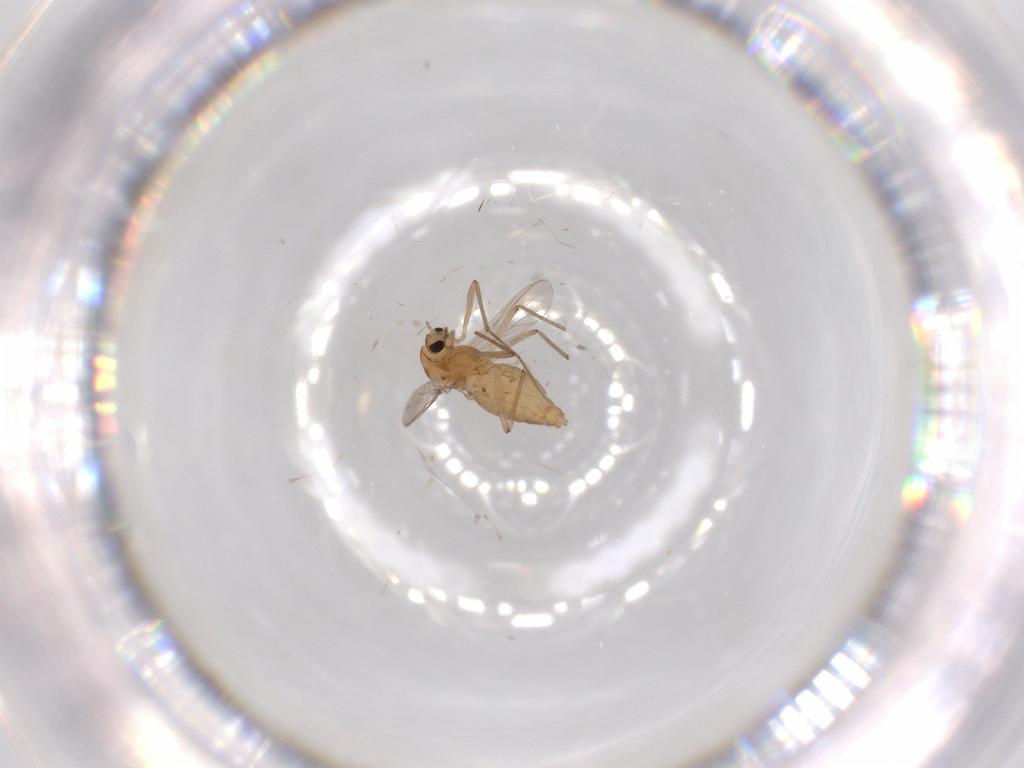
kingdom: Animalia
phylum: Arthropoda
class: Insecta
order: Diptera
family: Chironomidae
